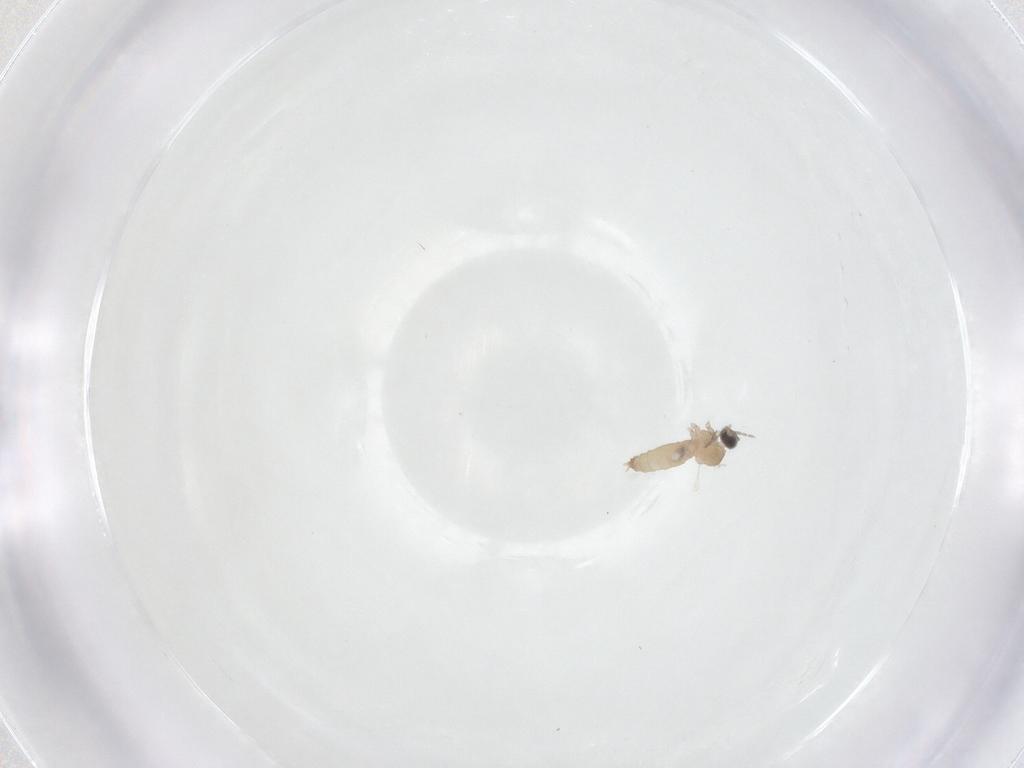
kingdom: Animalia
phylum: Arthropoda
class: Insecta
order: Diptera
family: Cecidomyiidae
